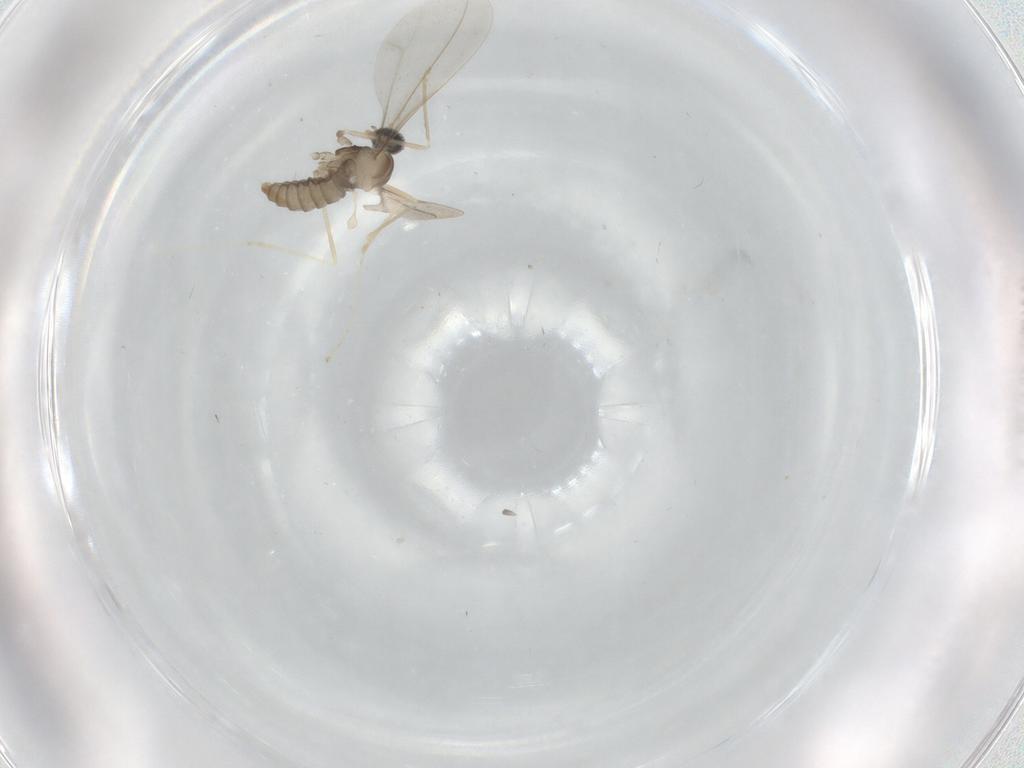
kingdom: Animalia
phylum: Arthropoda
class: Insecta
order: Diptera
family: Cecidomyiidae
